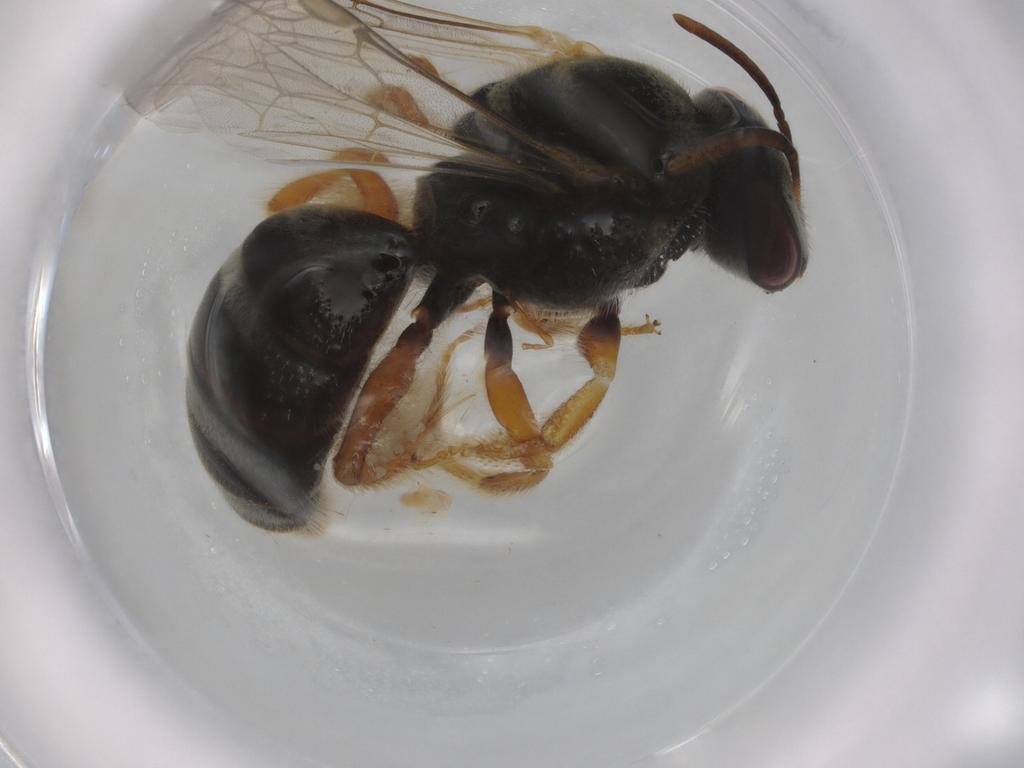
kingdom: Animalia
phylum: Arthropoda
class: Insecta
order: Hymenoptera
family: Halictidae
